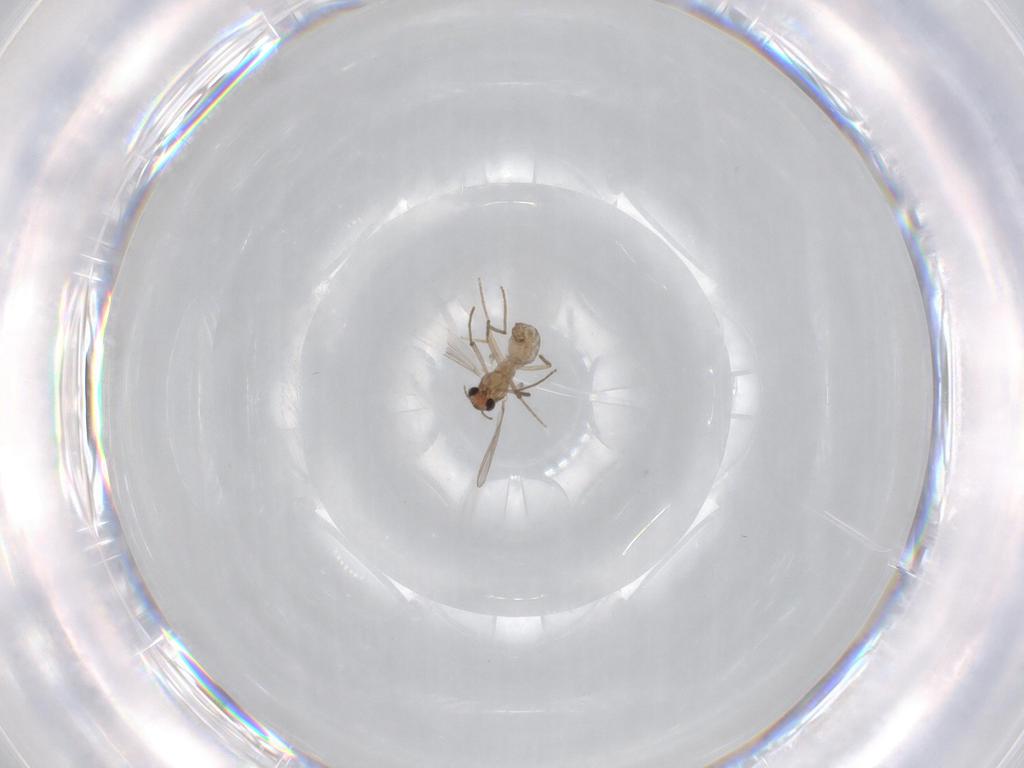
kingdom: Animalia
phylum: Arthropoda
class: Insecta
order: Diptera
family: Chironomidae
